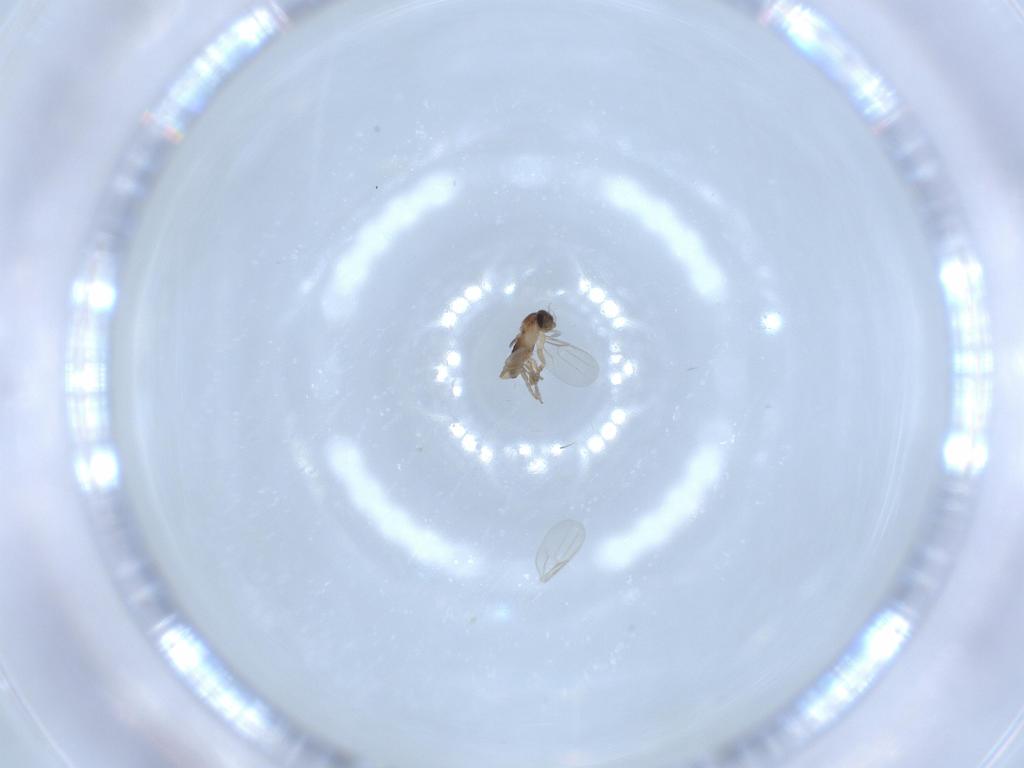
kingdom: Animalia
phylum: Arthropoda
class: Insecta
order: Diptera
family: Phoridae
